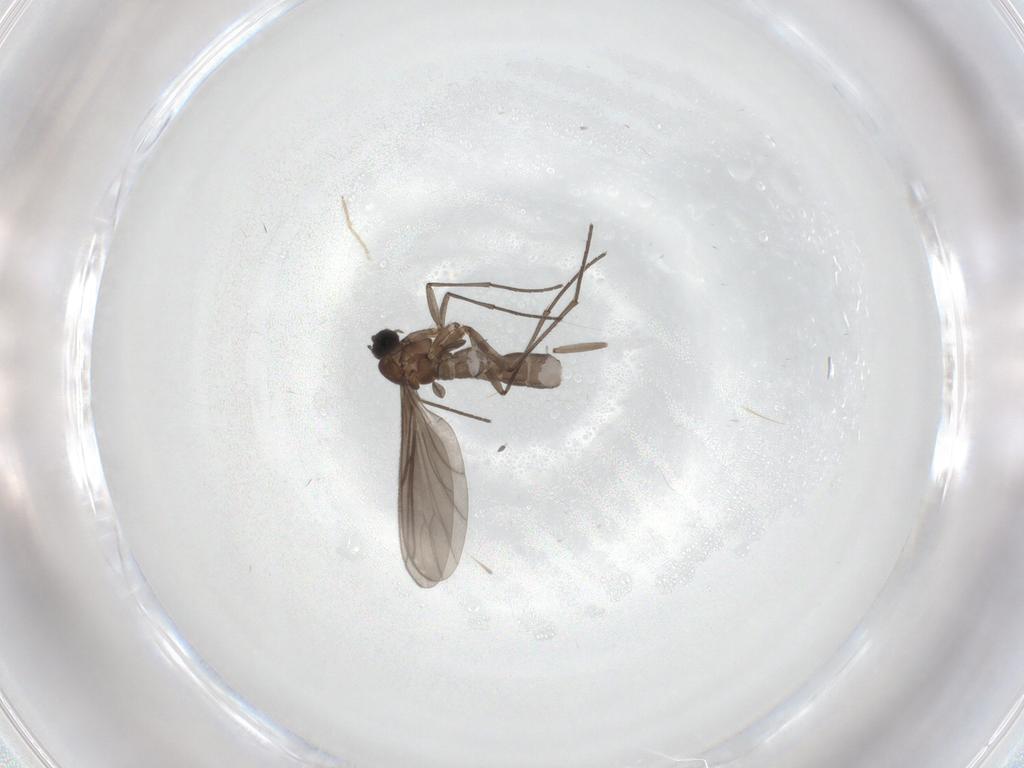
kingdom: Animalia
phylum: Arthropoda
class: Insecta
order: Diptera
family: Sciaridae
